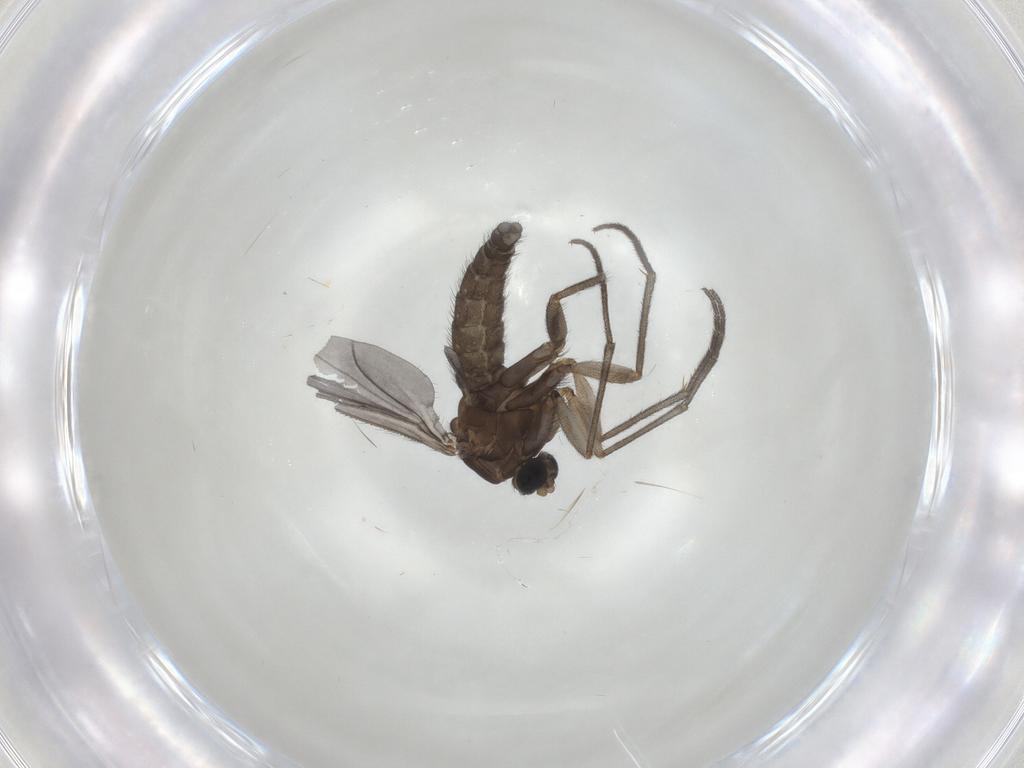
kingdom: Animalia
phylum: Arthropoda
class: Insecta
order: Diptera
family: Sciaridae
